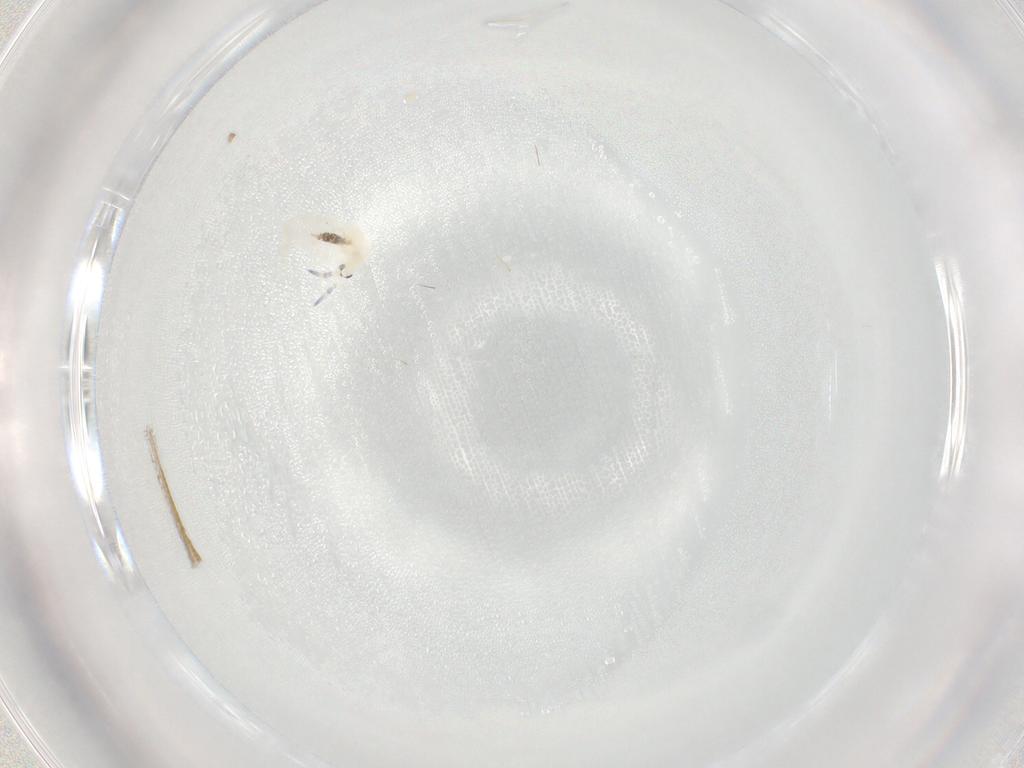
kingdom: Animalia
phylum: Arthropoda
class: Collembola
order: Entomobryomorpha
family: Entomobryidae
